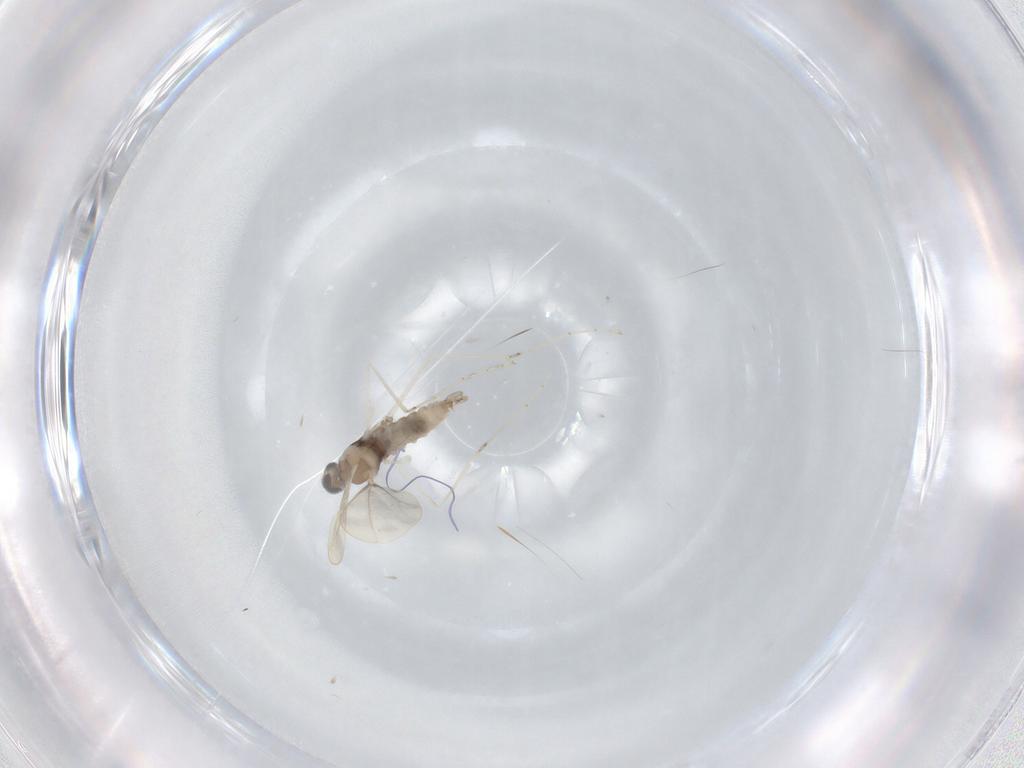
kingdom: Animalia
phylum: Arthropoda
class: Insecta
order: Diptera
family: Cecidomyiidae
